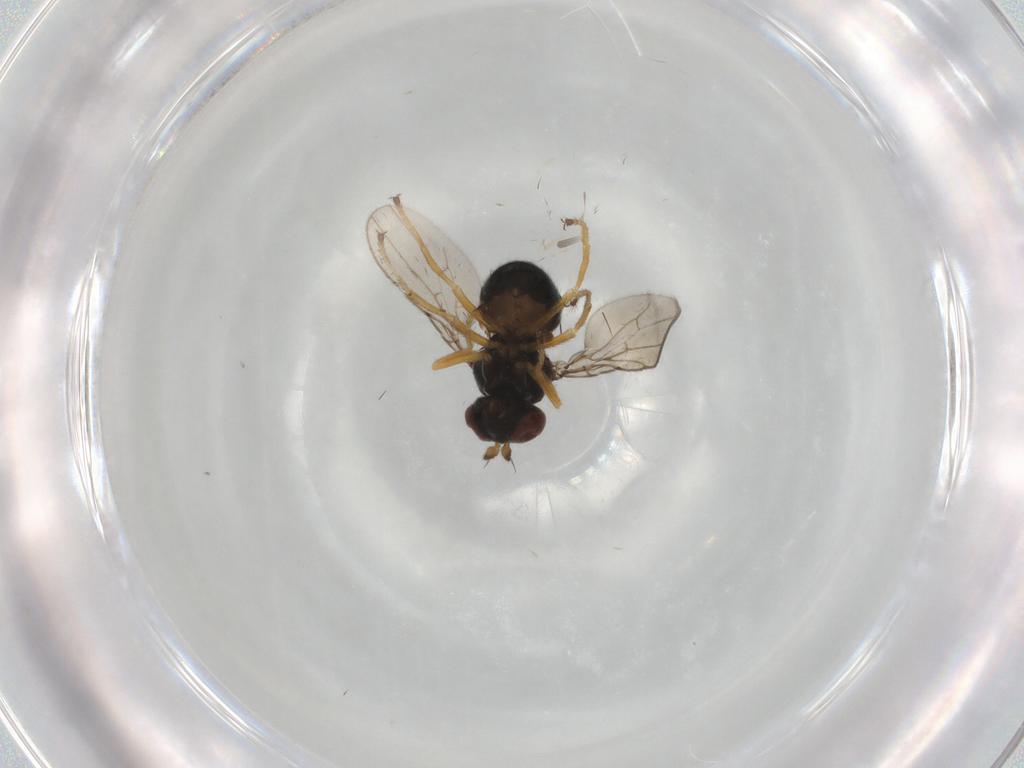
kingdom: Animalia
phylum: Arthropoda
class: Insecta
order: Diptera
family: Ephydridae
